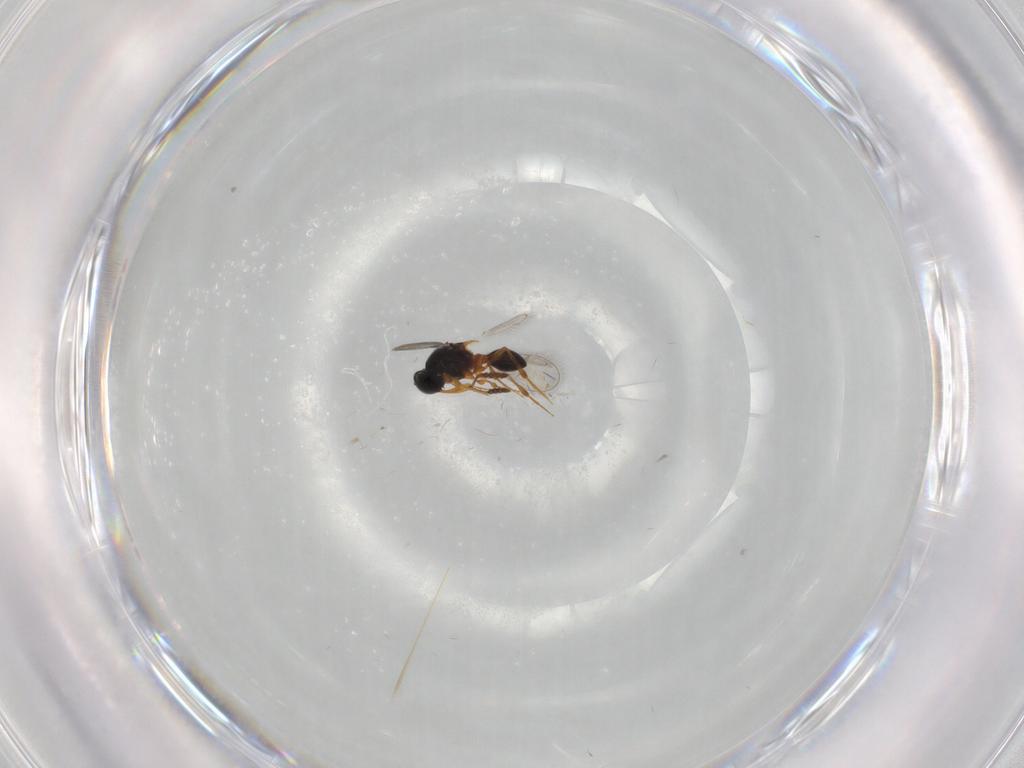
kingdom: Animalia
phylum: Arthropoda
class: Insecta
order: Hymenoptera
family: Platygastridae
